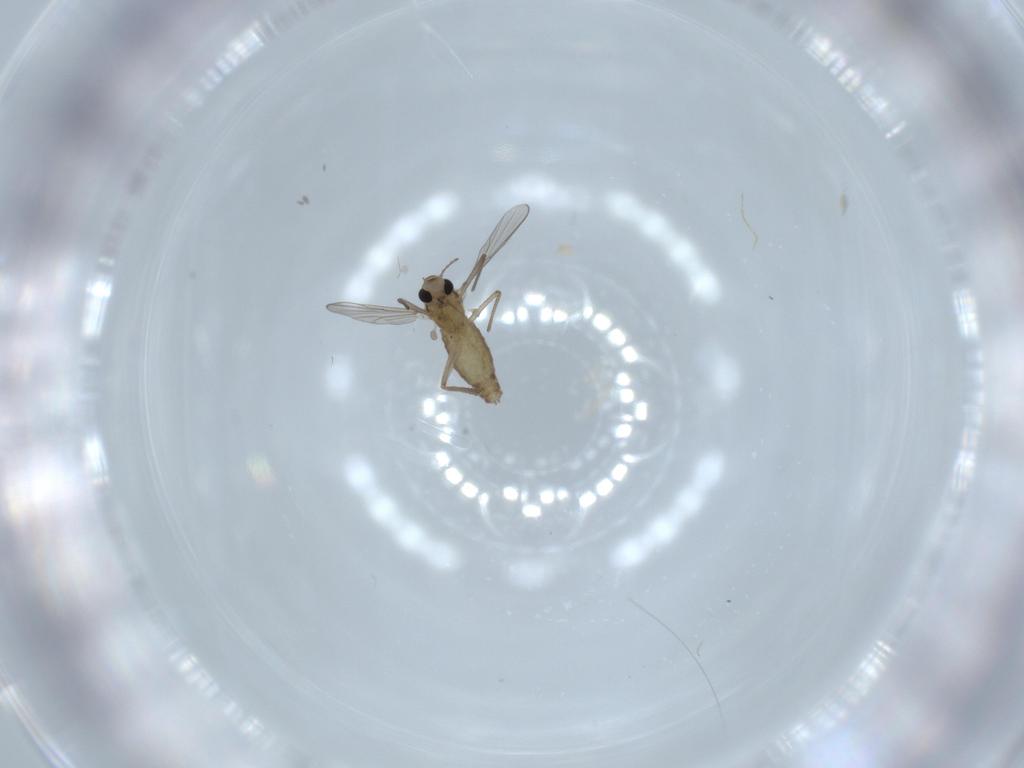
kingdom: Animalia
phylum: Arthropoda
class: Insecta
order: Diptera
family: Chironomidae
